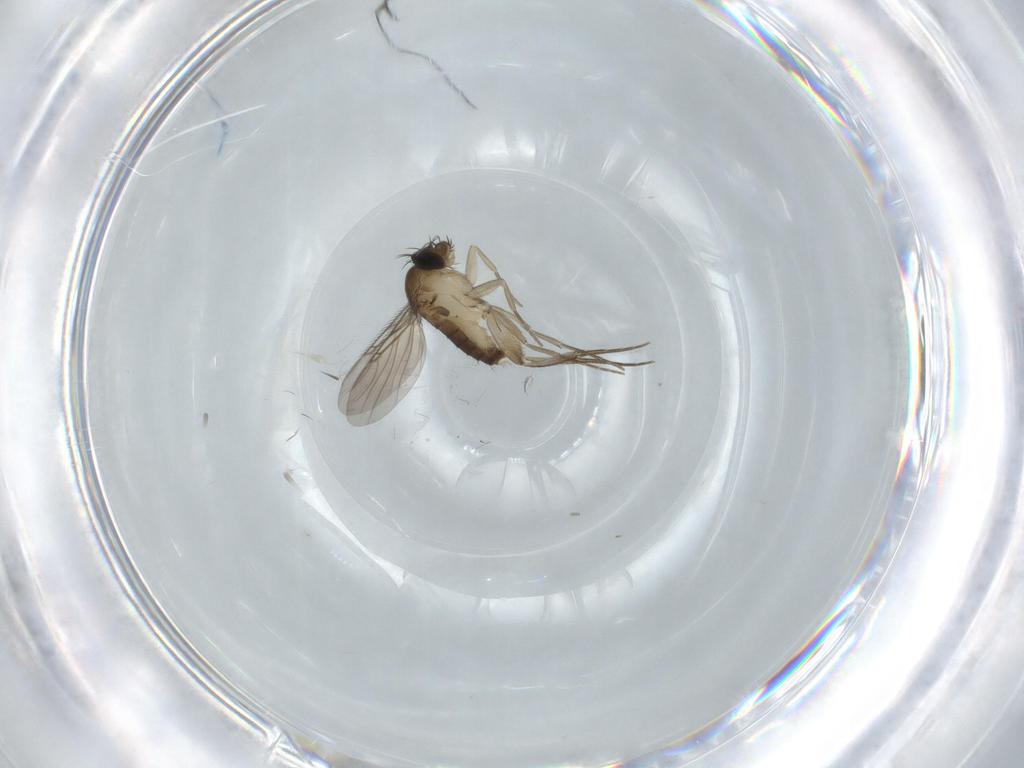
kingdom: Animalia
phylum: Arthropoda
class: Insecta
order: Diptera
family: Phoridae
